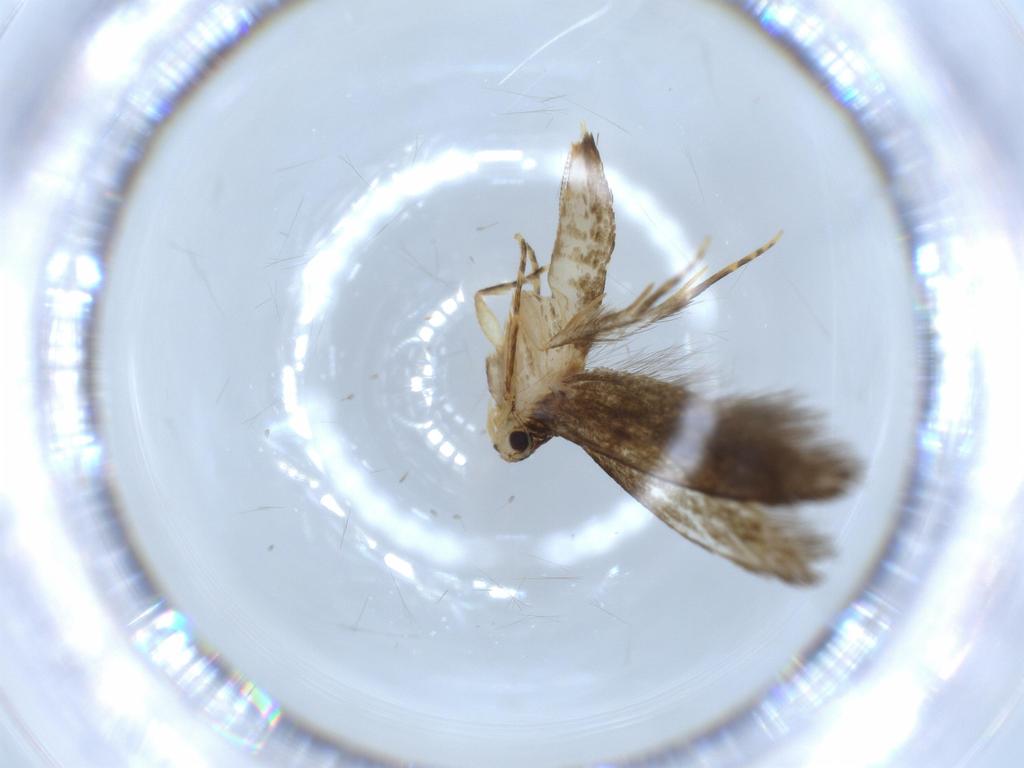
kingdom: Animalia
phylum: Arthropoda
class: Insecta
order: Lepidoptera
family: Tineidae
